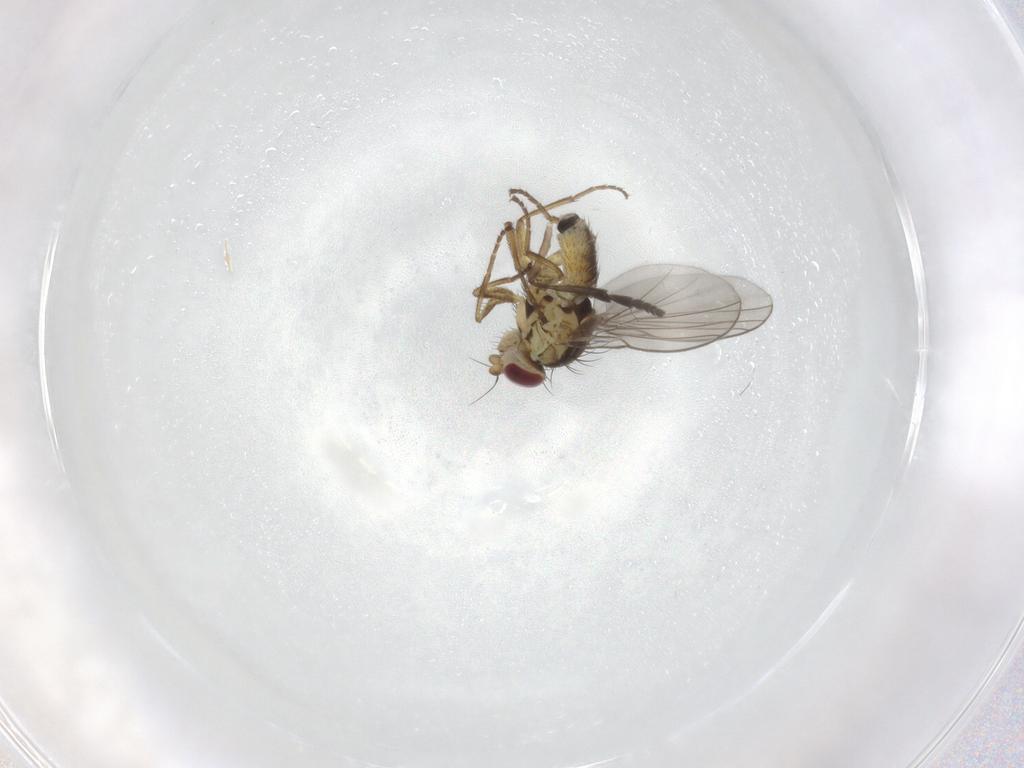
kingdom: Animalia
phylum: Arthropoda
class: Insecta
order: Diptera
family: Agromyzidae
